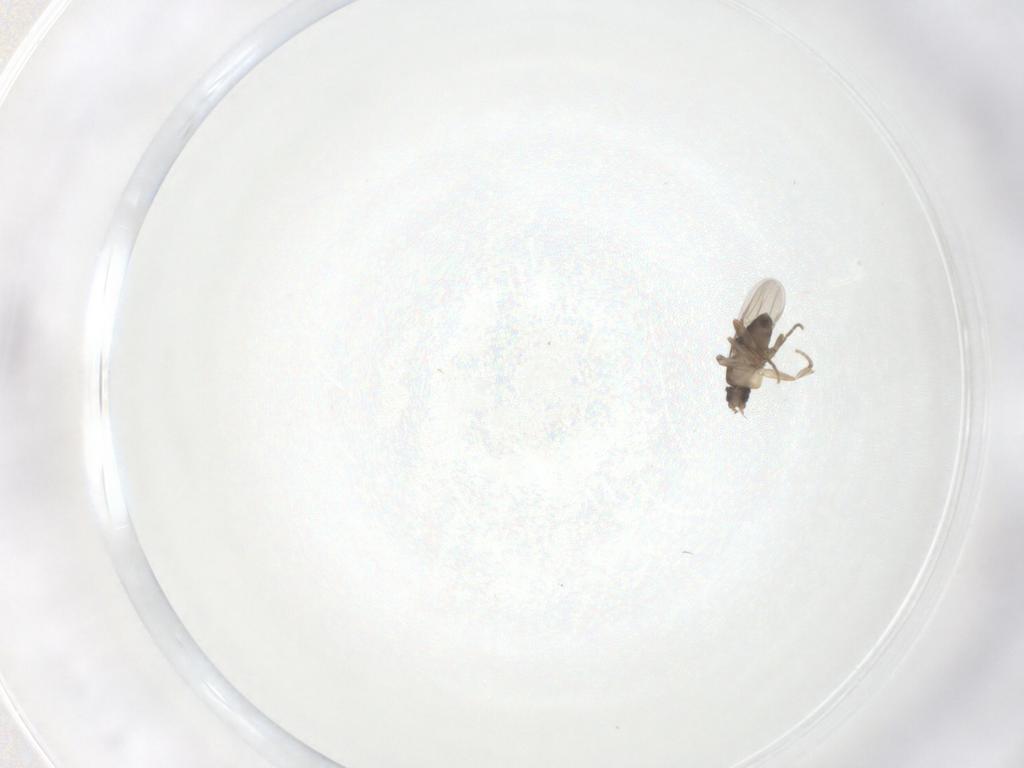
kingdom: Animalia
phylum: Arthropoda
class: Insecta
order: Diptera
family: Phoridae
